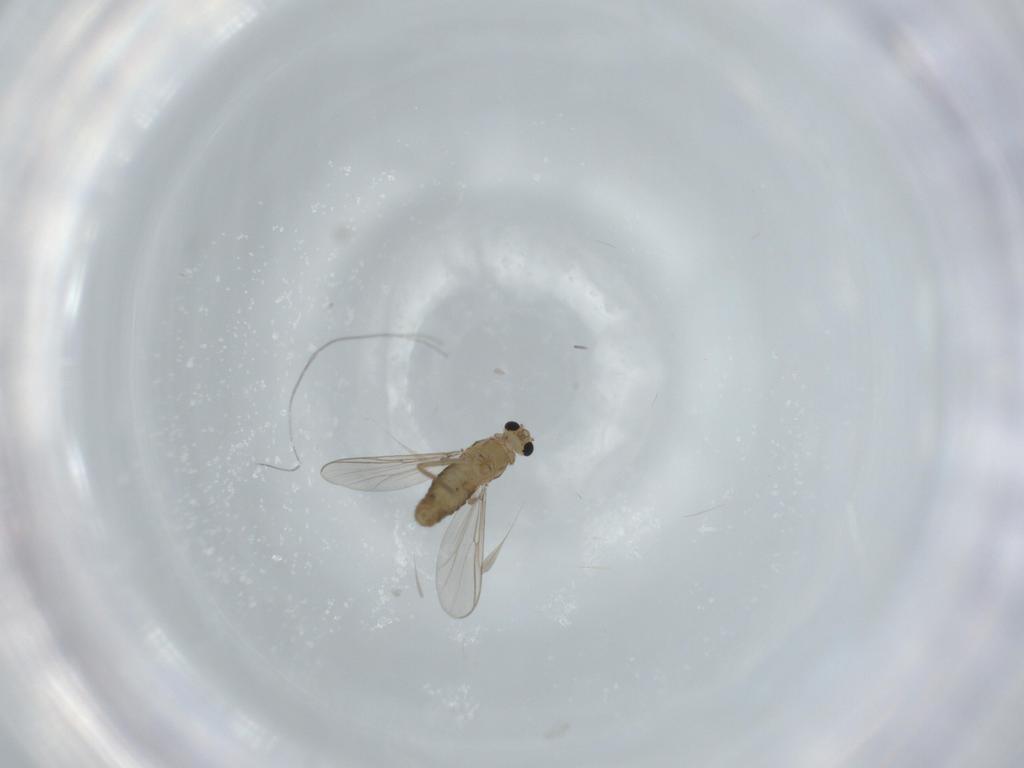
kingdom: Animalia
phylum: Arthropoda
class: Insecta
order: Diptera
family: Chironomidae
